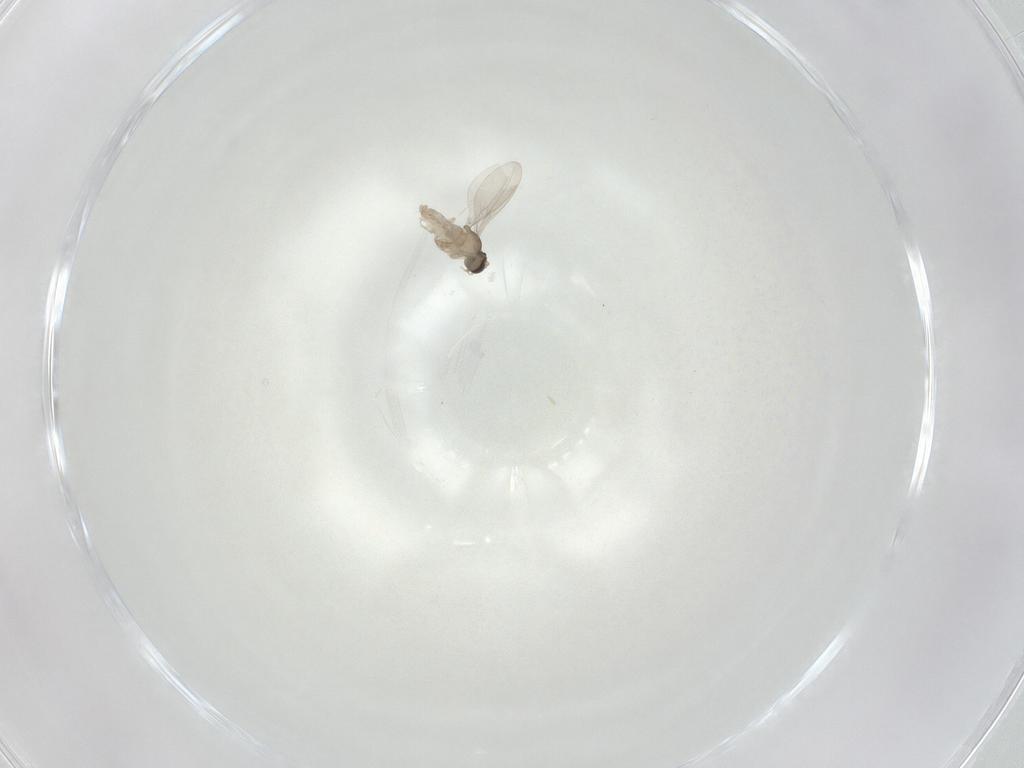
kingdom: Animalia
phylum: Arthropoda
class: Insecta
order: Diptera
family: Cecidomyiidae
